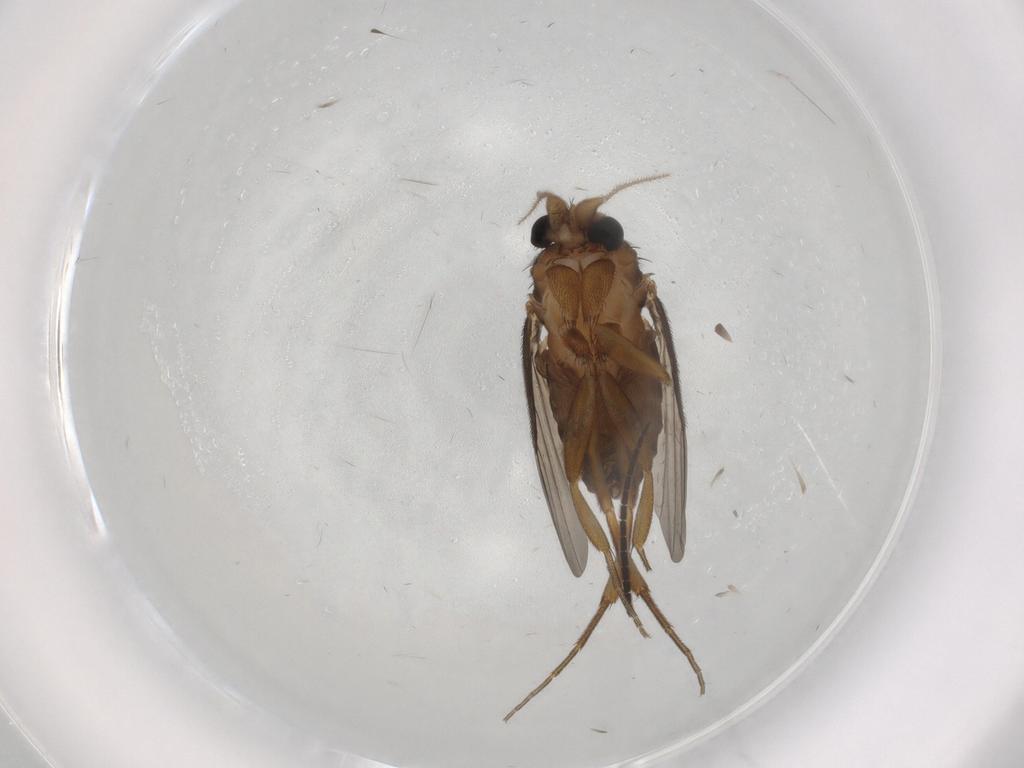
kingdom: Animalia
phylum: Arthropoda
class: Insecta
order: Diptera
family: Sciaridae
